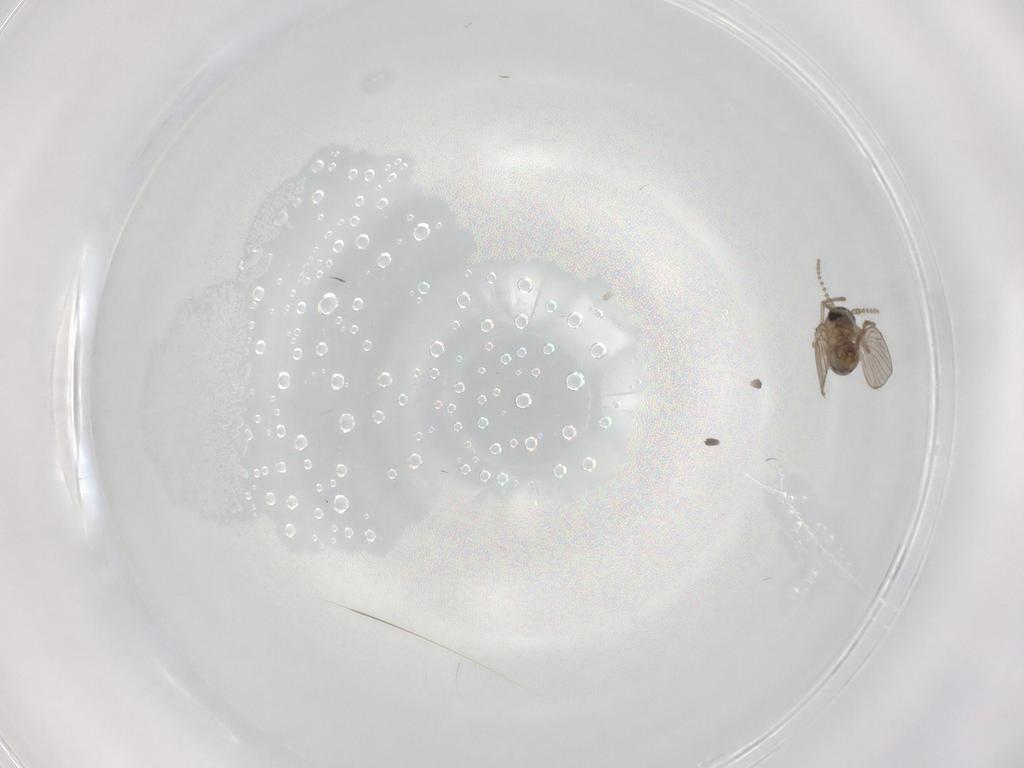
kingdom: Animalia
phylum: Arthropoda
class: Insecta
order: Diptera
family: Psychodidae
